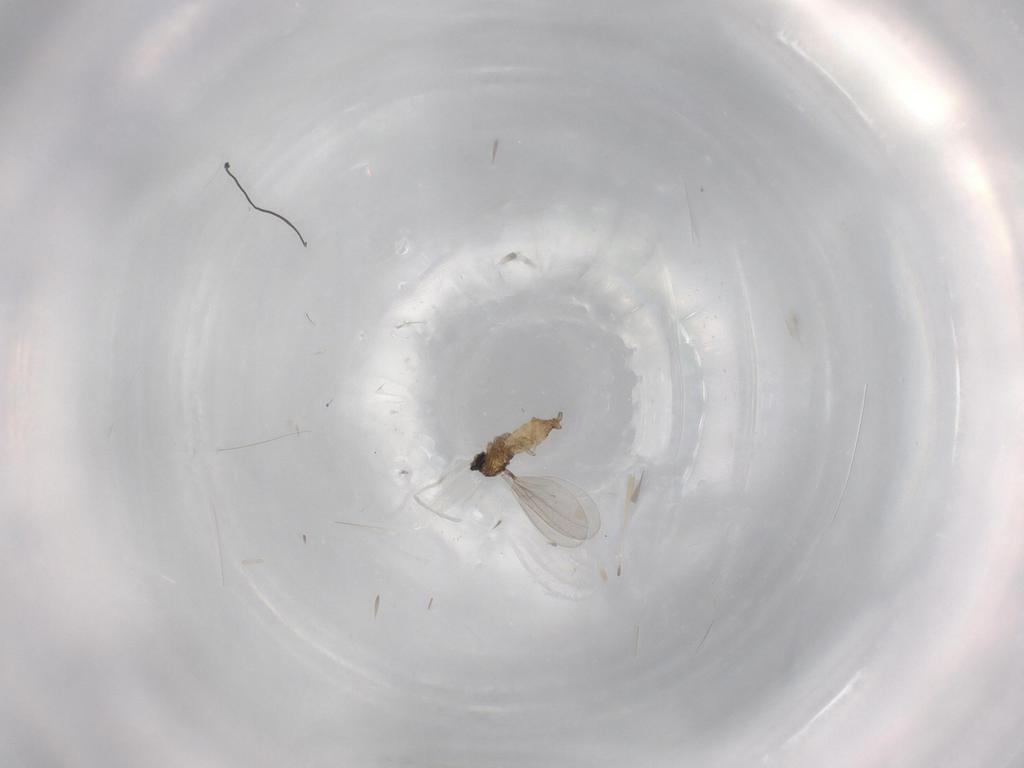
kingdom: Animalia
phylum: Arthropoda
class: Insecta
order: Diptera
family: Cecidomyiidae
